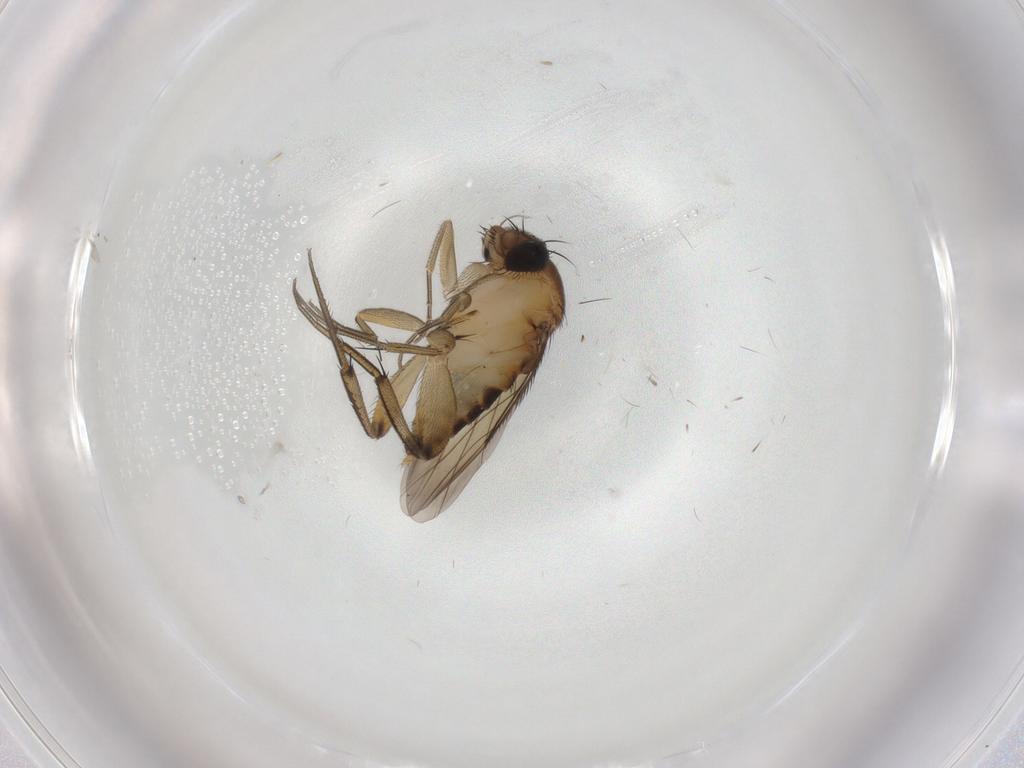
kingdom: Animalia
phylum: Arthropoda
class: Insecta
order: Diptera
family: Phoridae
